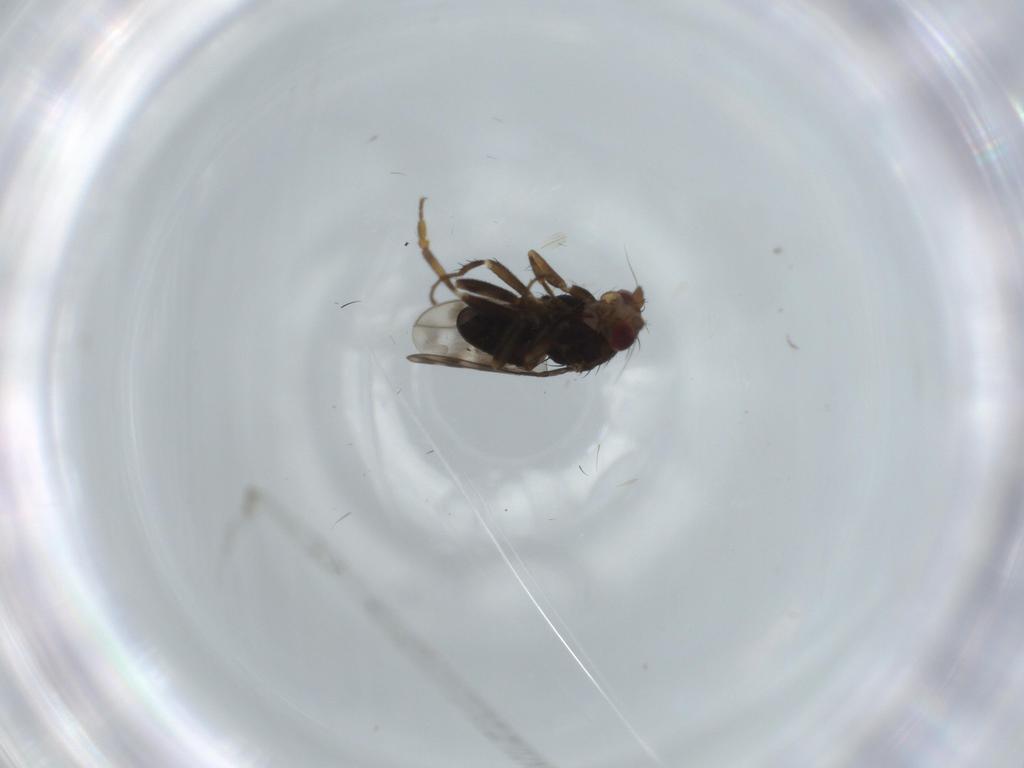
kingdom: Animalia
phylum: Arthropoda
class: Insecta
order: Diptera
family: Sphaeroceridae
